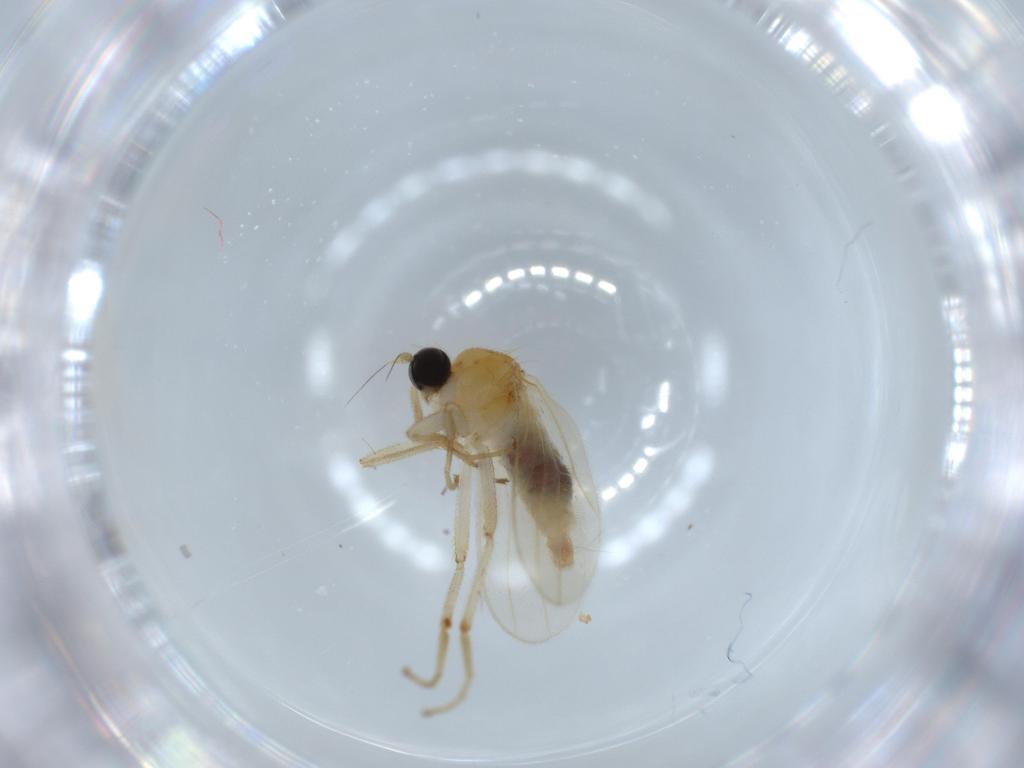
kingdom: Animalia
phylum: Arthropoda
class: Insecta
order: Diptera
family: Hybotidae
